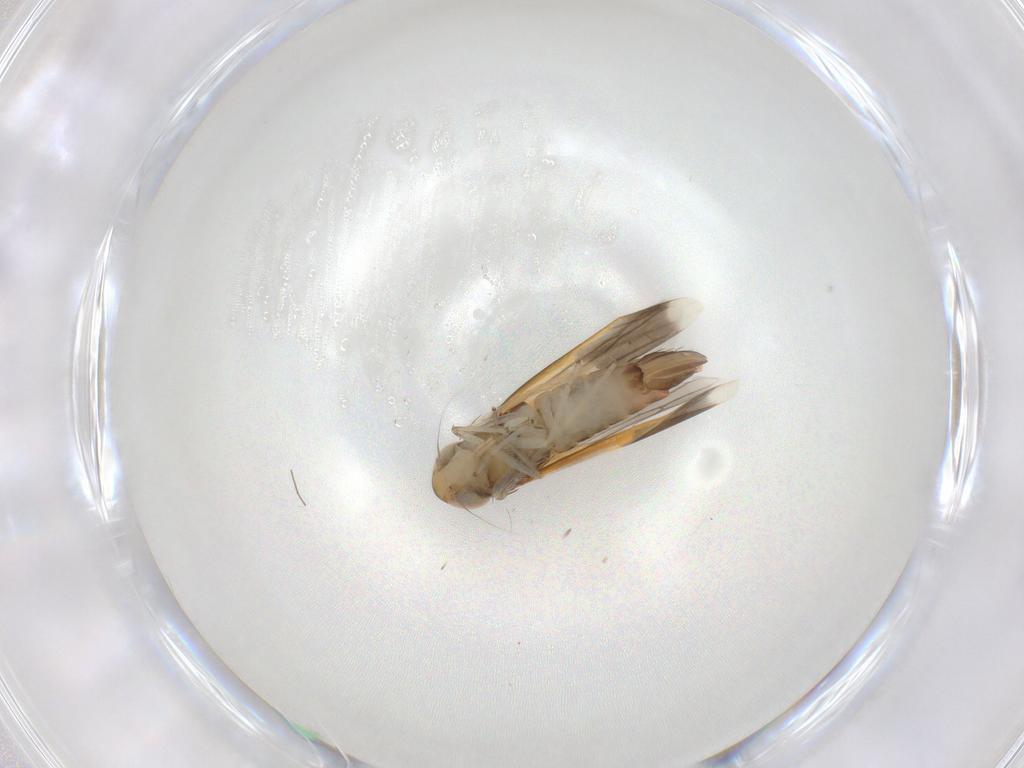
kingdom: Animalia
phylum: Arthropoda
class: Insecta
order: Hemiptera
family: Cicadellidae
